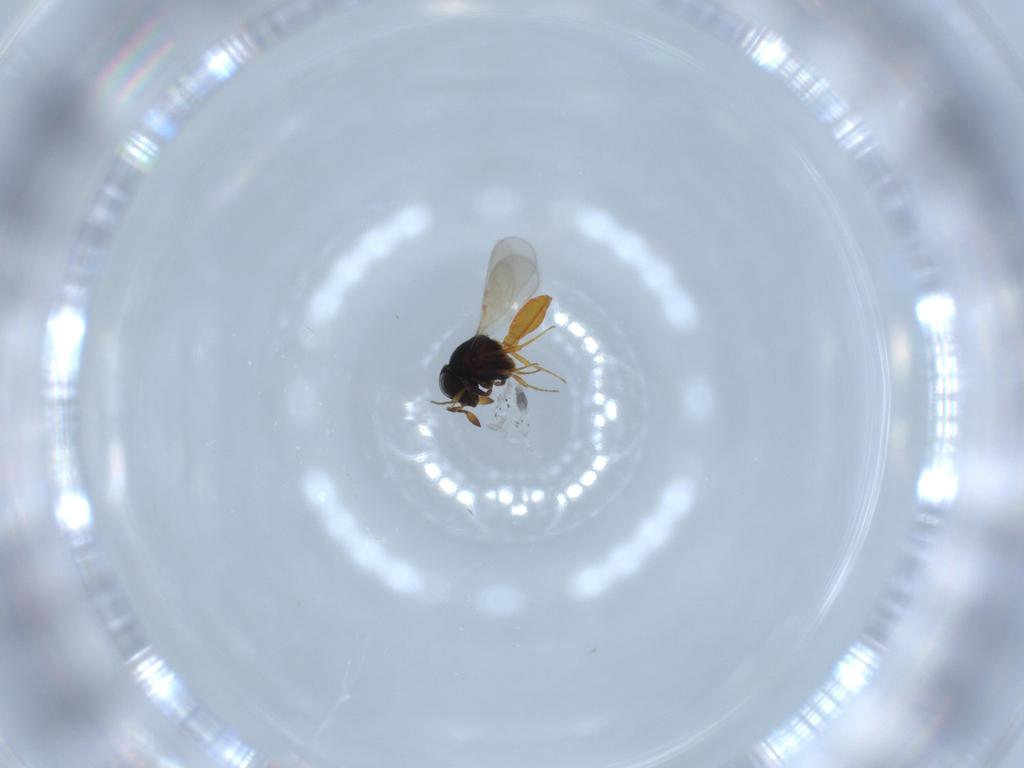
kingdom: Animalia
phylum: Arthropoda
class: Insecta
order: Hymenoptera
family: Scelionidae
